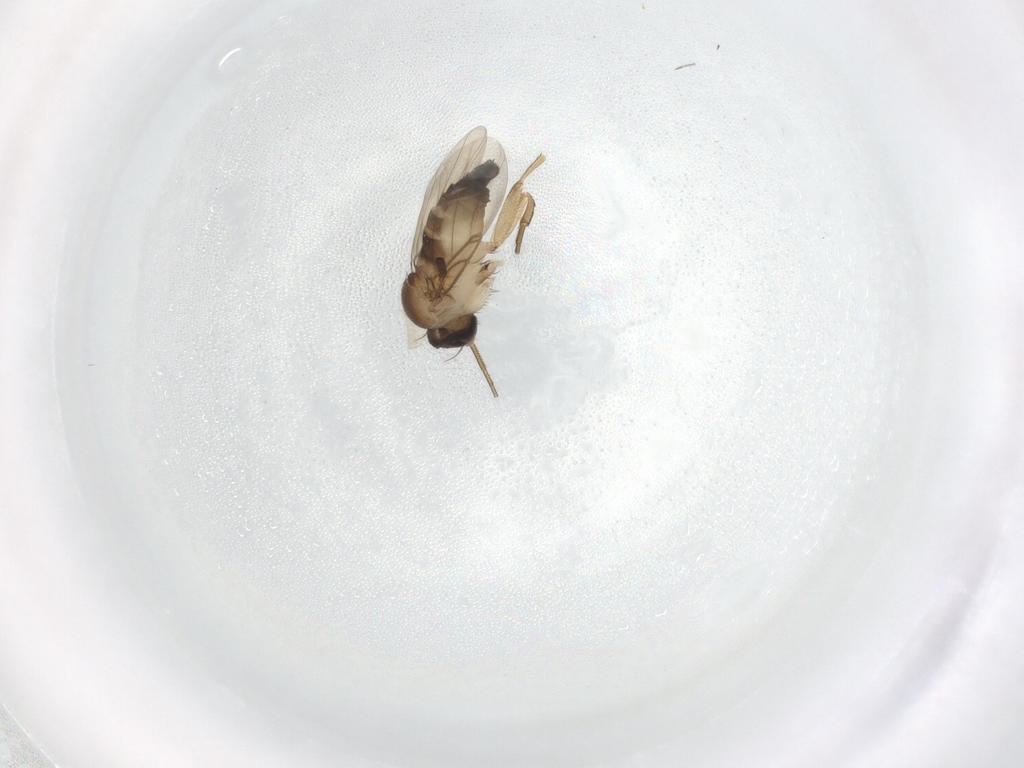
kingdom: Animalia
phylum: Arthropoda
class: Insecta
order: Diptera
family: Phoridae
